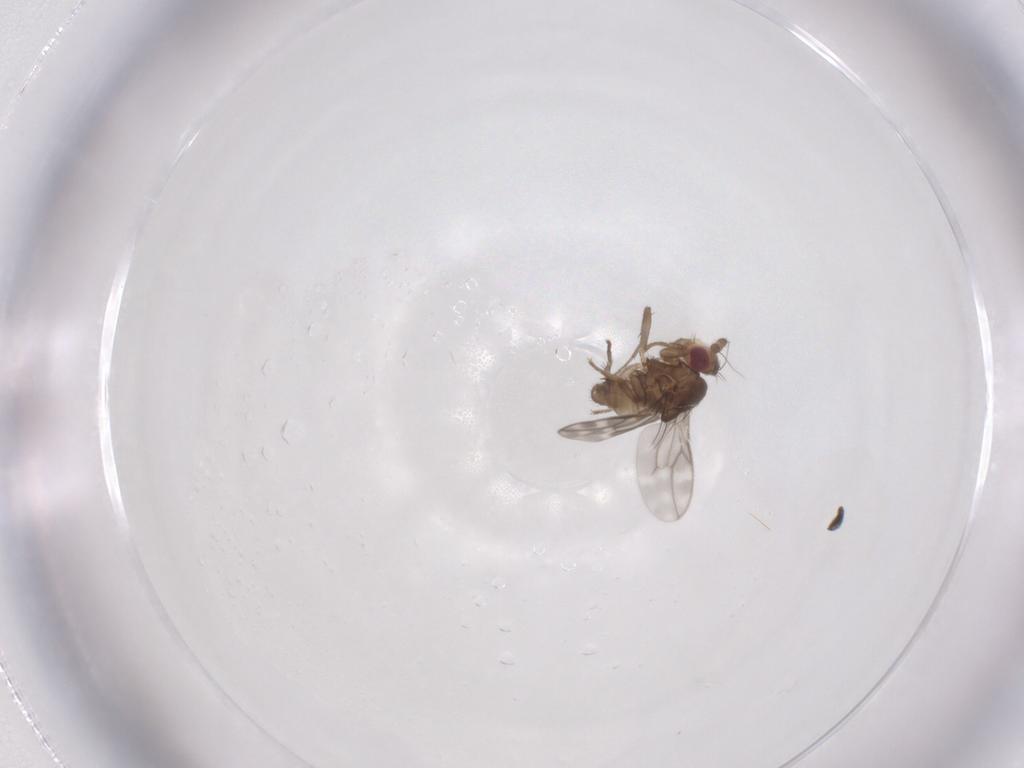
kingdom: Animalia
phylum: Arthropoda
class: Insecta
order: Diptera
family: Sphaeroceridae
